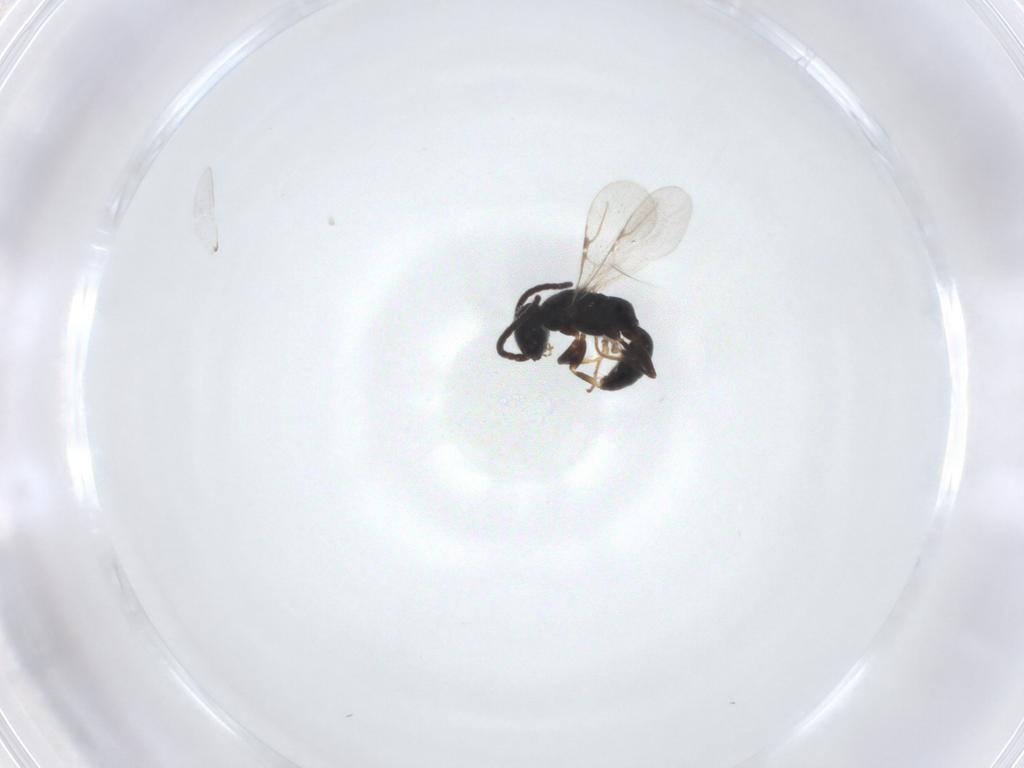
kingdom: Animalia
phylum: Arthropoda
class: Insecta
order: Hymenoptera
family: Bethylidae
